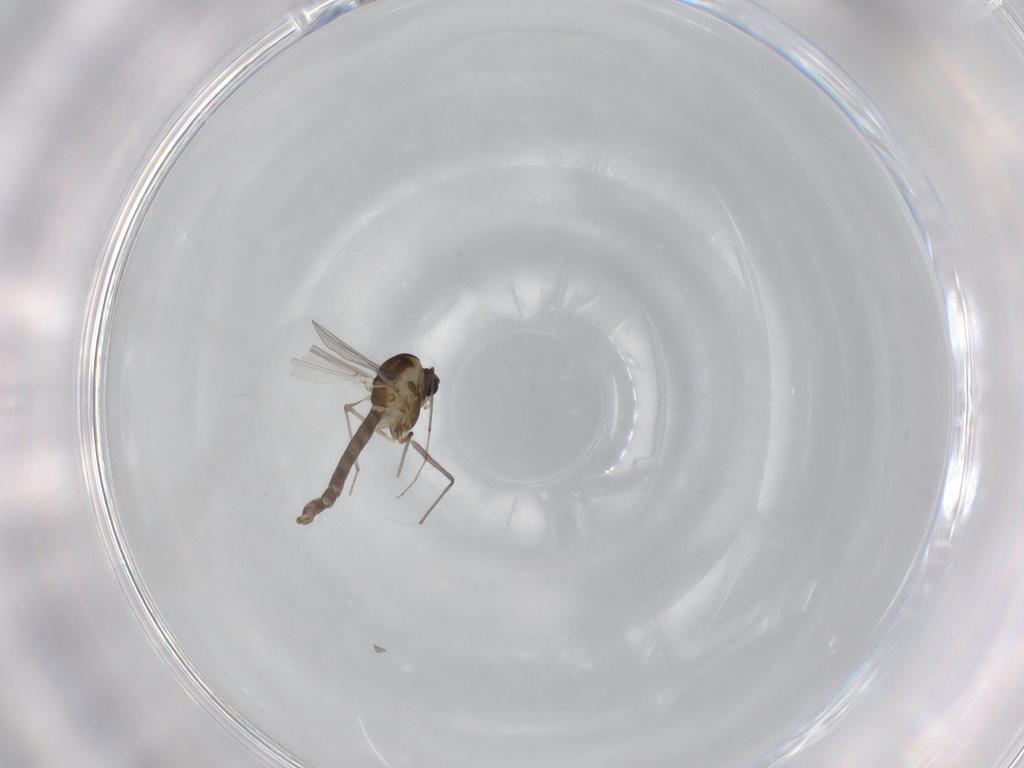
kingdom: Animalia
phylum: Arthropoda
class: Insecta
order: Diptera
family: Chironomidae
